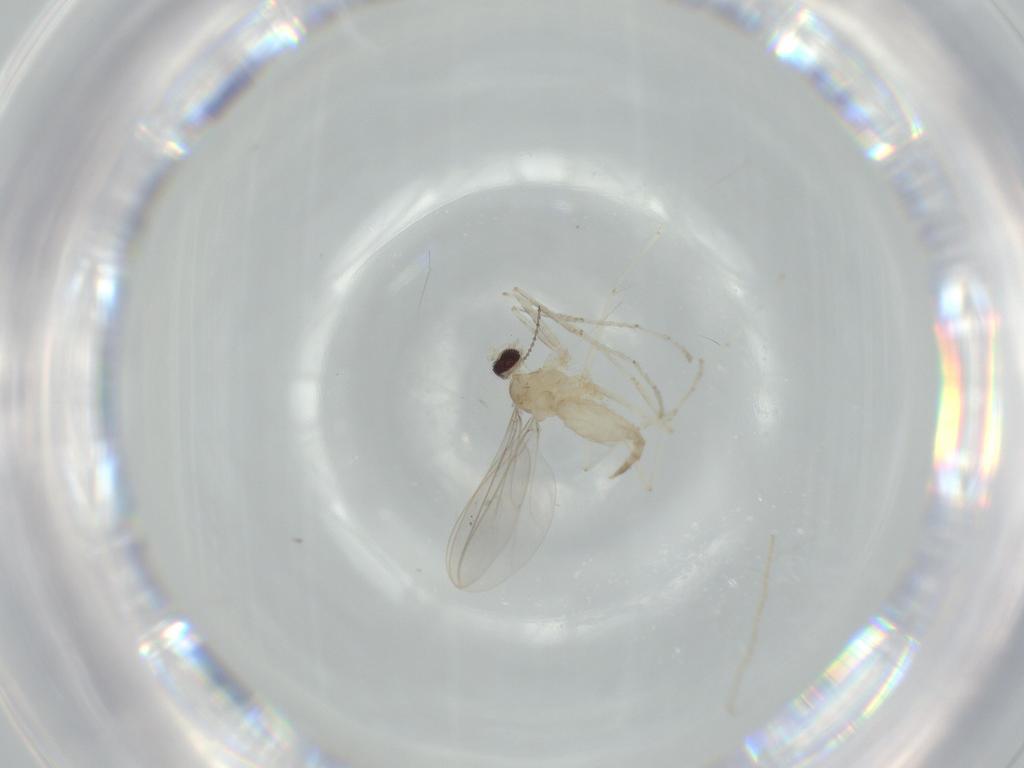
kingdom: Animalia
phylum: Arthropoda
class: Insecta
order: Diptera
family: Cecidomyiidae
